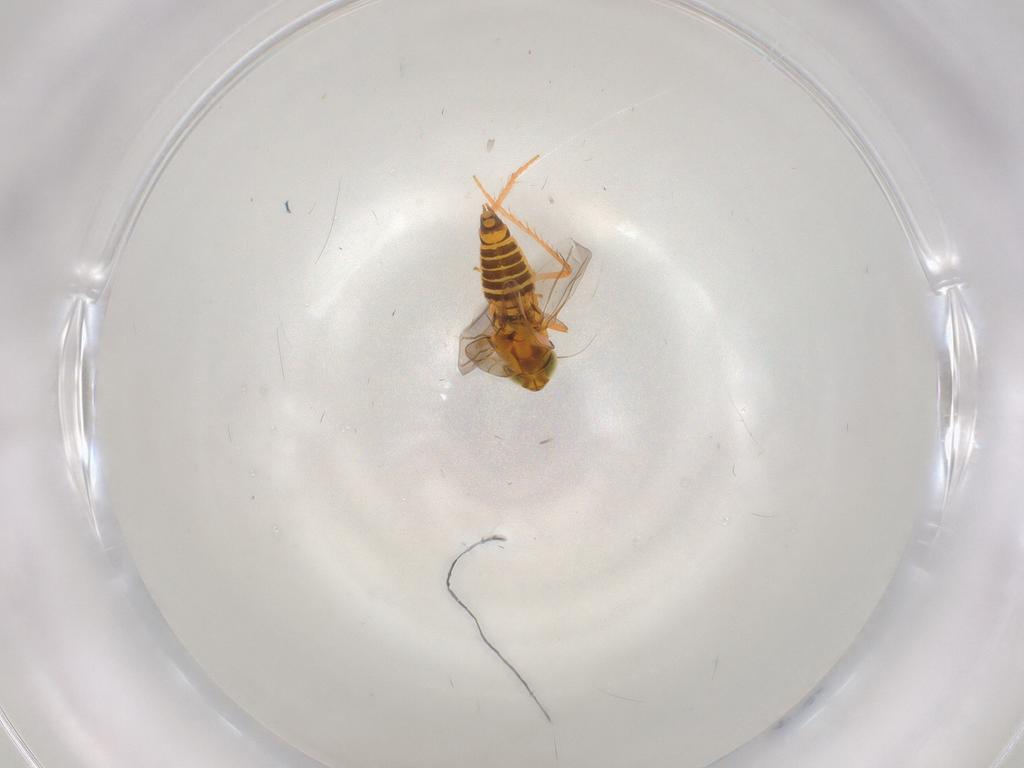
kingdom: Animalia
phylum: Arthropoda
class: Insecta
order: Hemiptera
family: Cicadellidae
